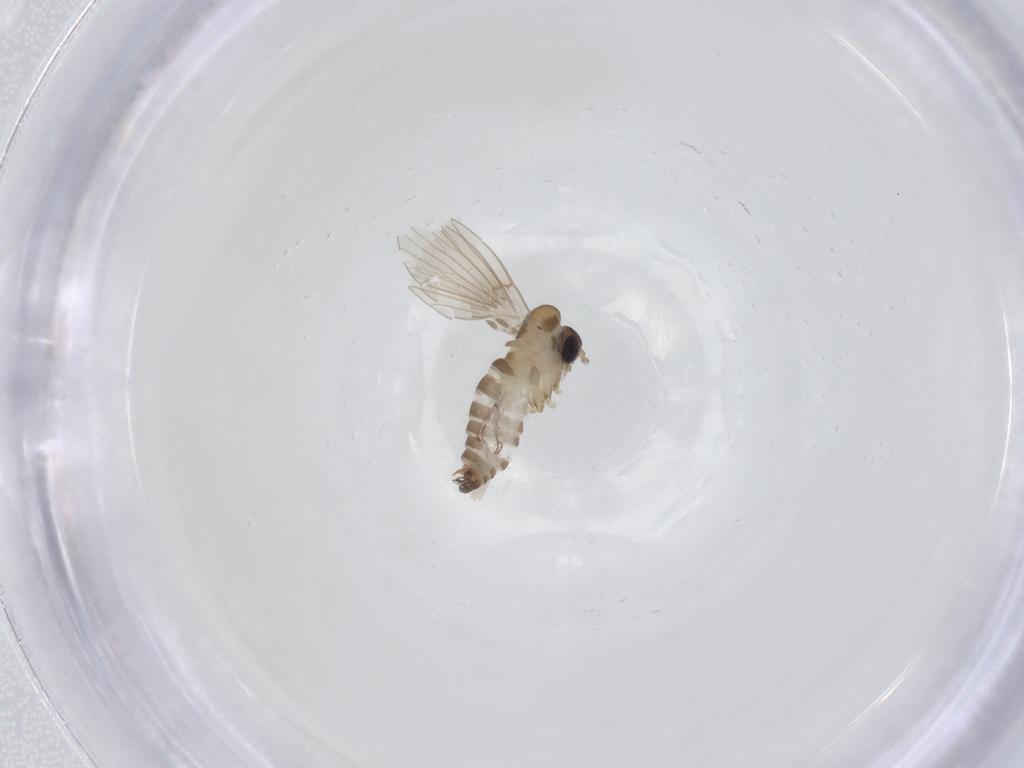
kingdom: Animalia
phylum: Arthropoda
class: Insecta
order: Diptera
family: Psychodidae
